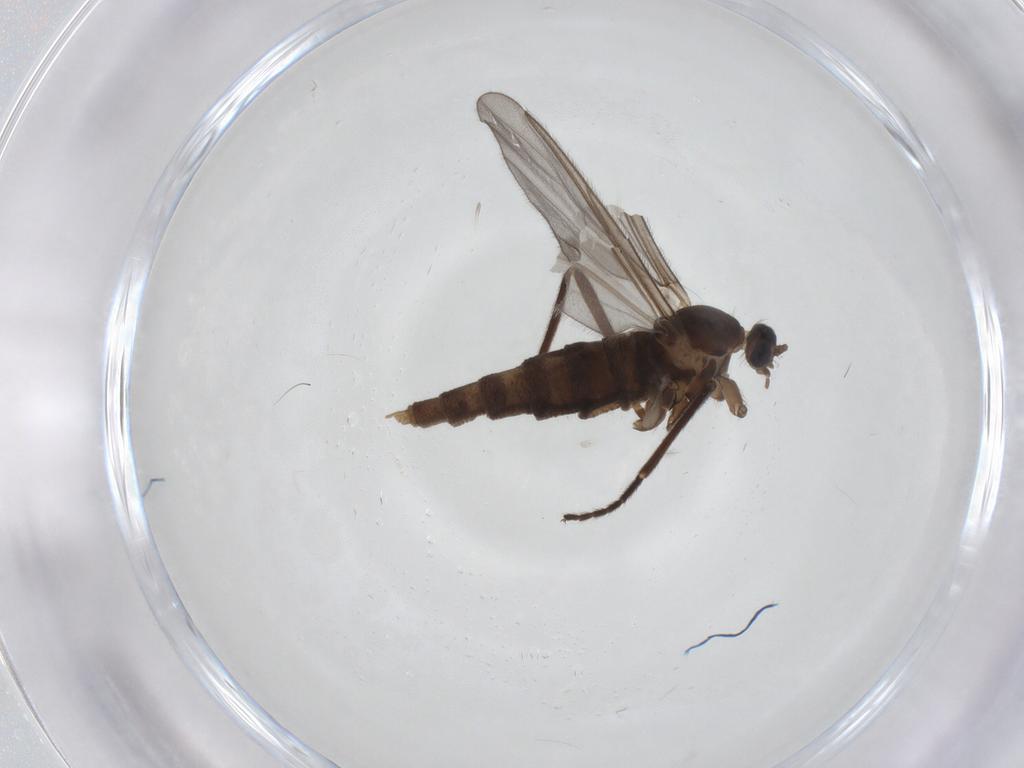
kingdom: Animalia
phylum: Arthropoda
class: Insecta
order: Diptera
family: Cecidomyiidae
